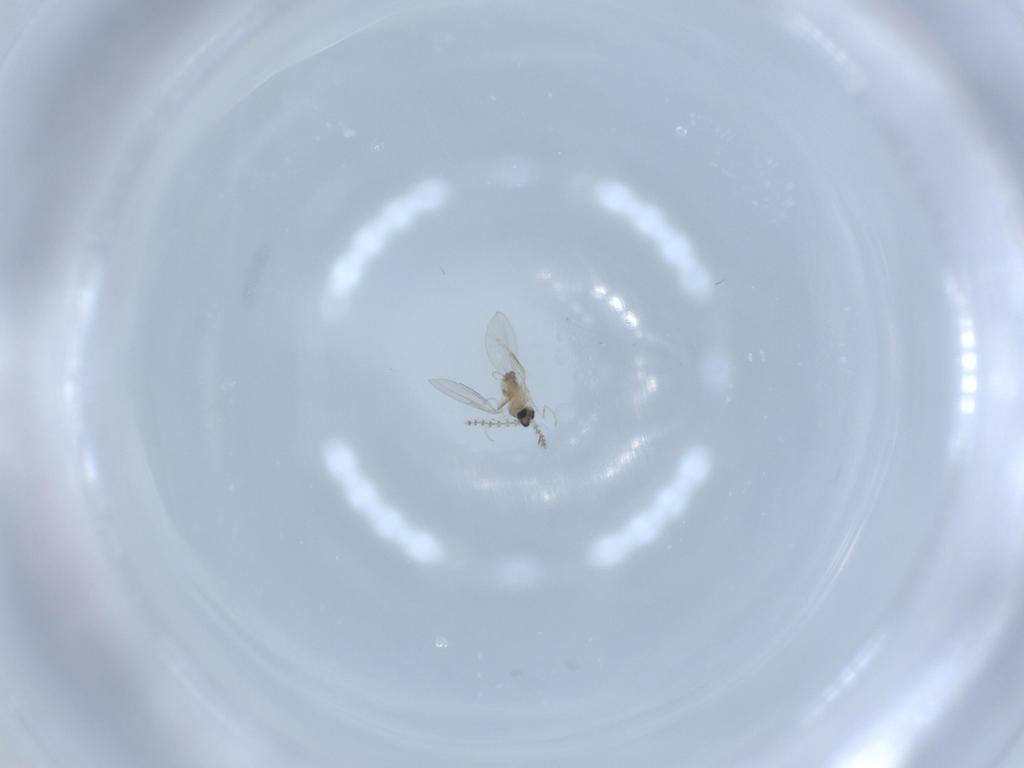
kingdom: Animalia
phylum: Arthropoda
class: Insecta
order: Diptera
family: Cecidomyiidae
